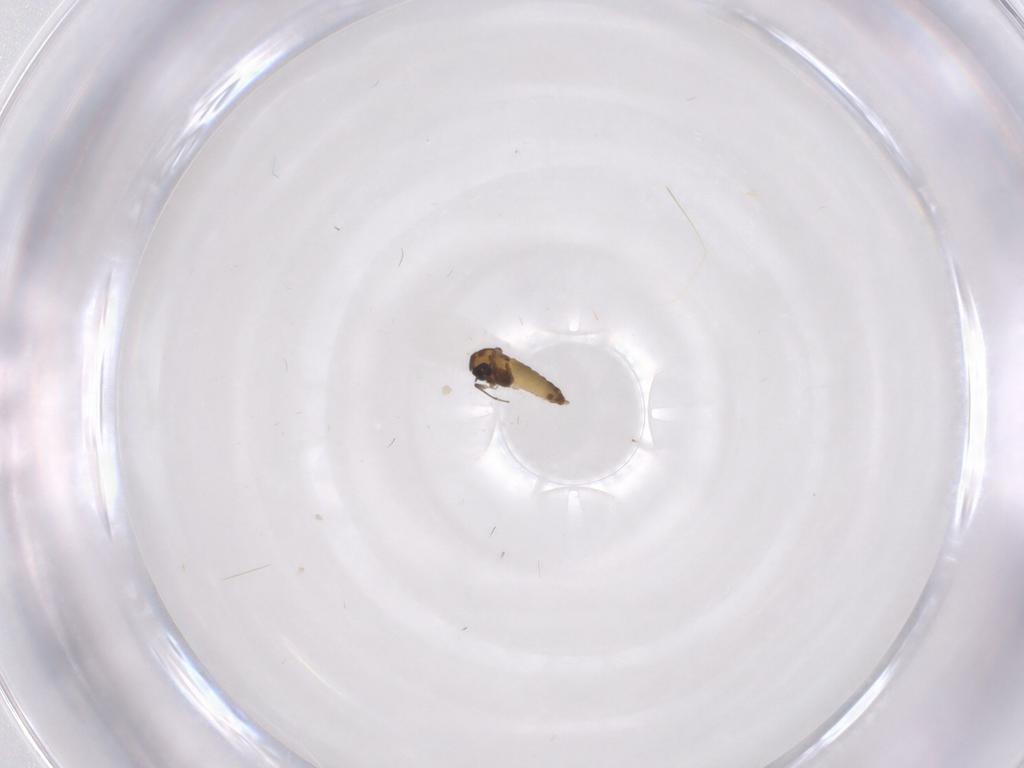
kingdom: Animalia
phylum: Arthropoda
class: Insecta
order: Diptera
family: Chironomidae
